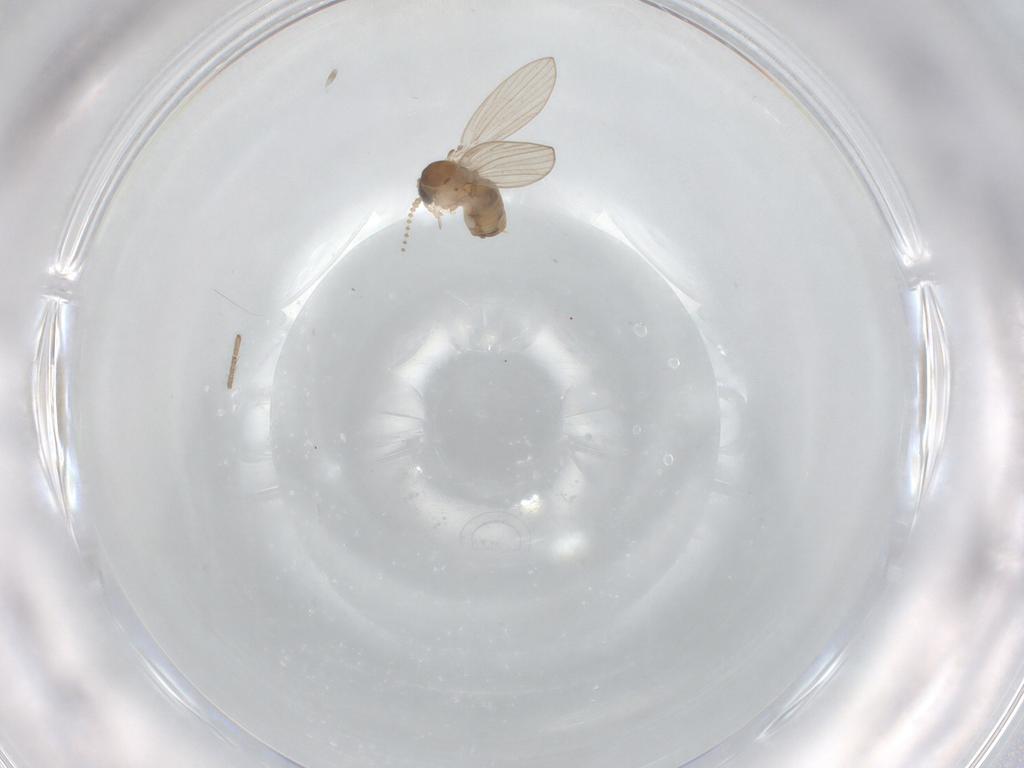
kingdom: Animalia
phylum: Arthropoda
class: Insecta
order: Diptera
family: Psychodidae
